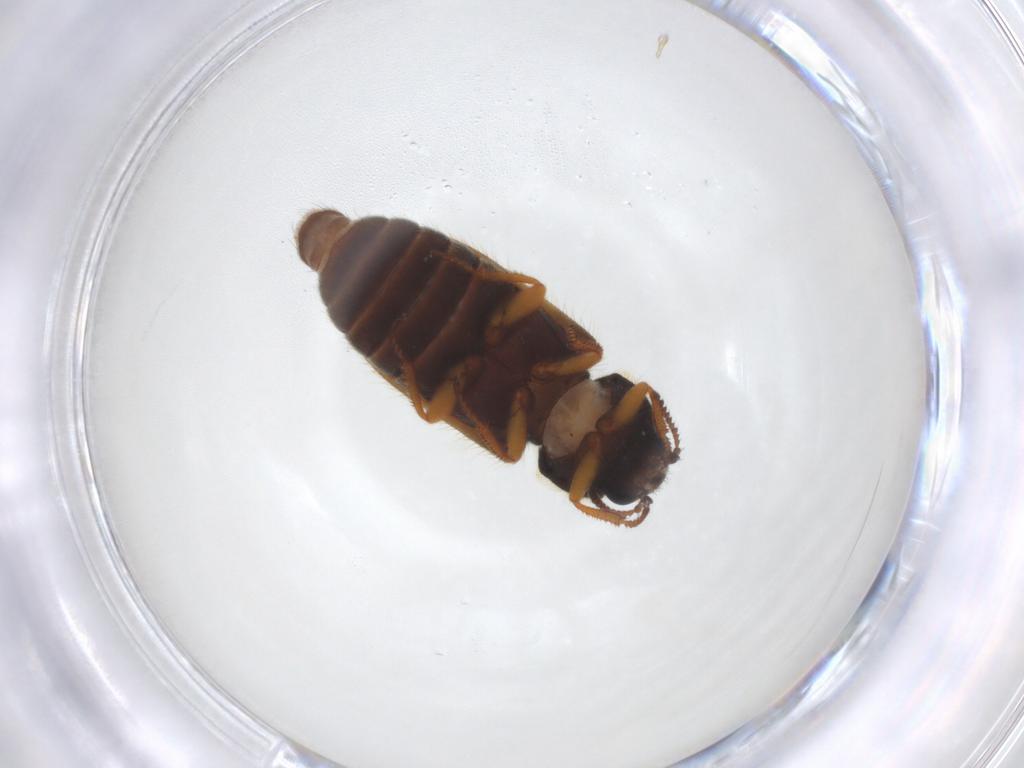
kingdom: Animalia
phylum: Arthropoda
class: Insecta
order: Coleoptera
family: Melyridae
